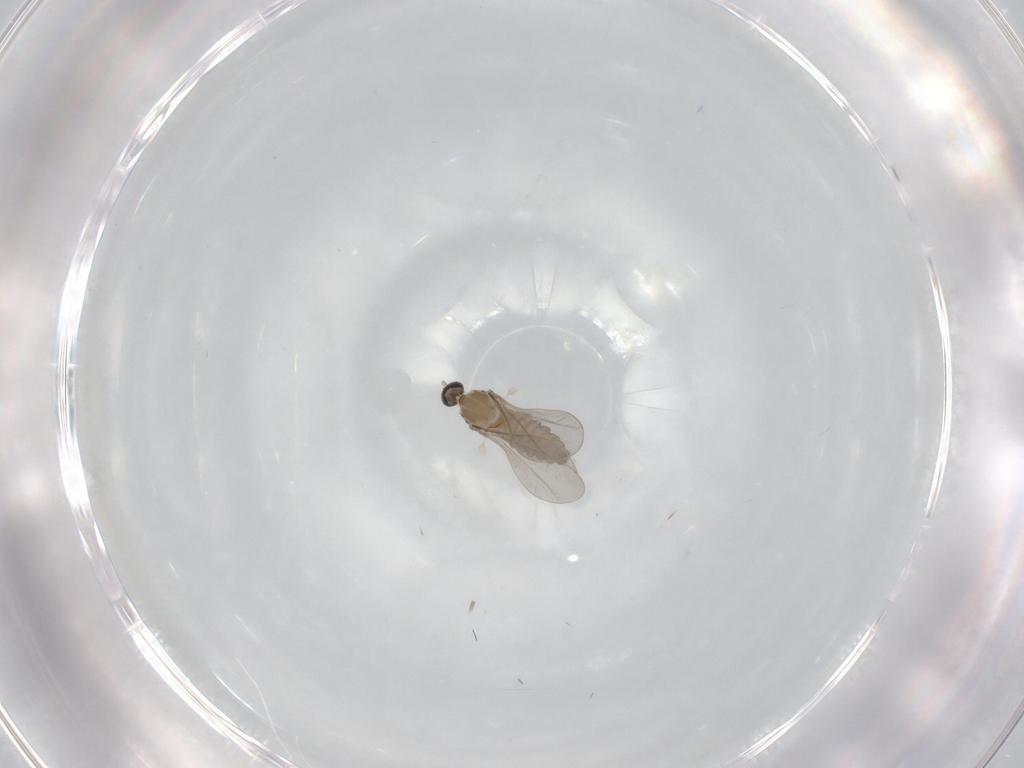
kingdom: Animalia
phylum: Arthropoda
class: Insecta
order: Diptera
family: Cecidomyiidae
